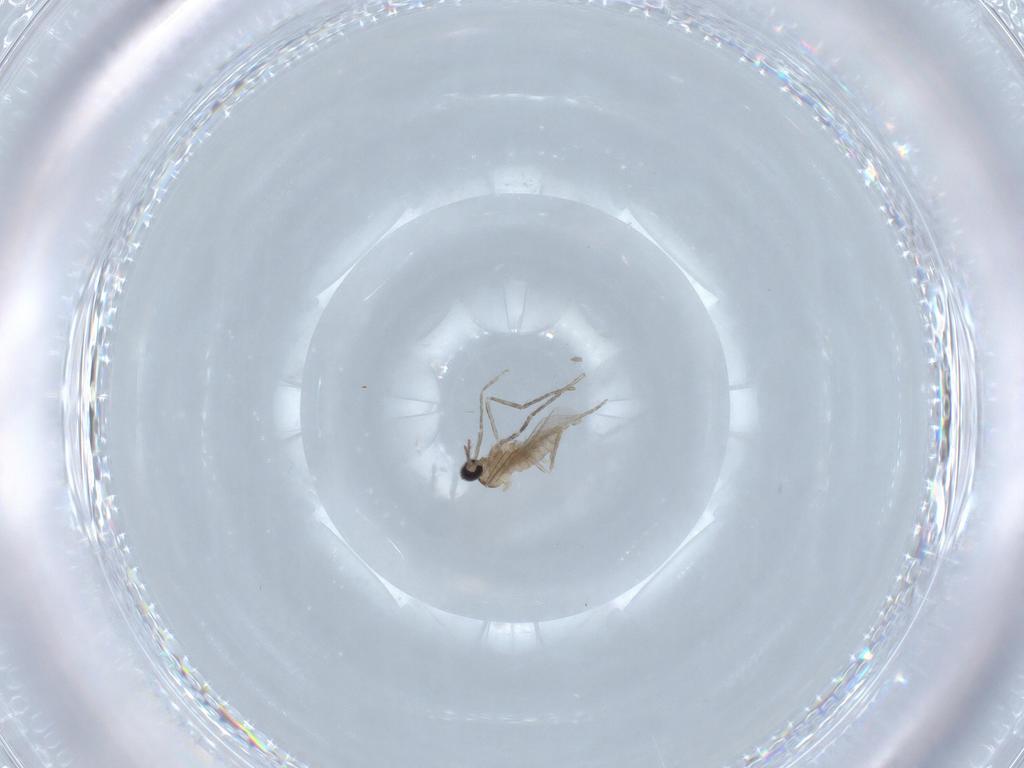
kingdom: Animalia
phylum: Arthropoda
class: Insecta
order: Diptera
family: Cecidomyiidae
